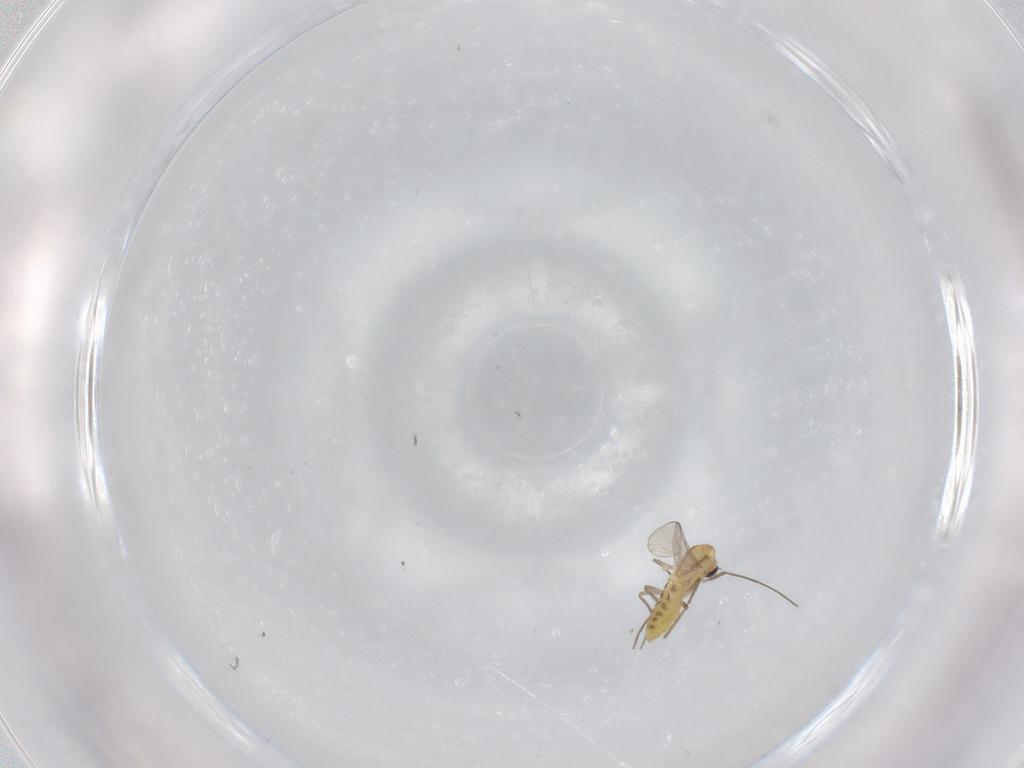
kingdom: Animalia
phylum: Arthropoda
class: Insecta
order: Diptera
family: Chironomidae
